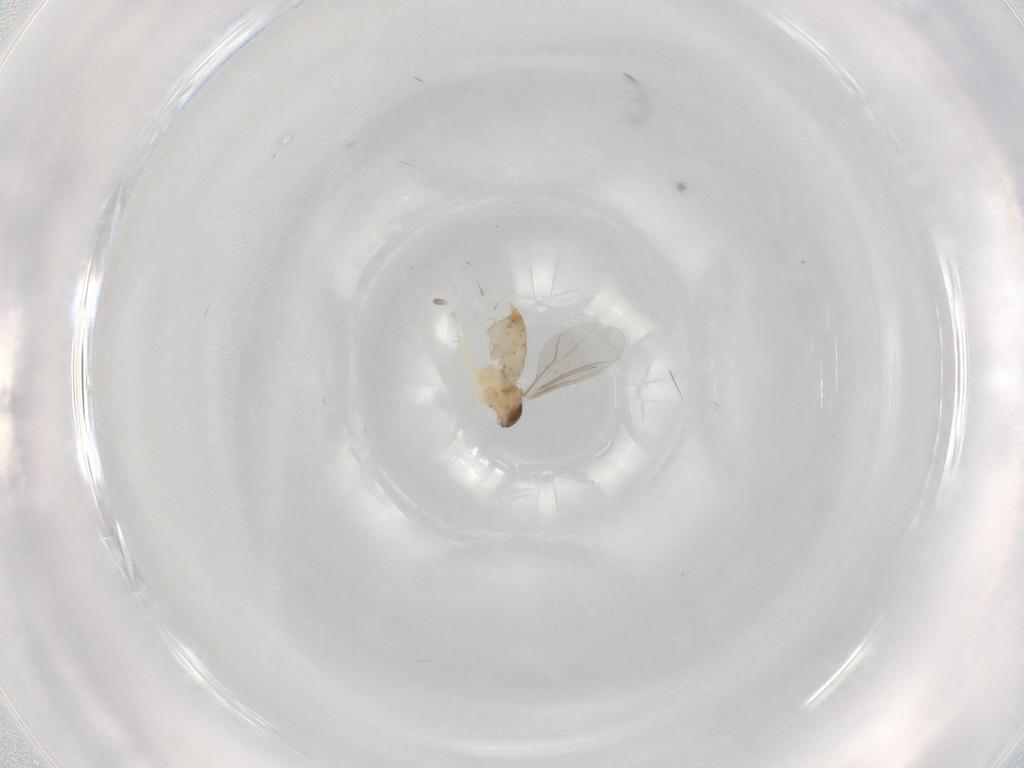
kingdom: Animalia
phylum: Arthropoda
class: Insecta
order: Diptera
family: Cecidomyiidae
